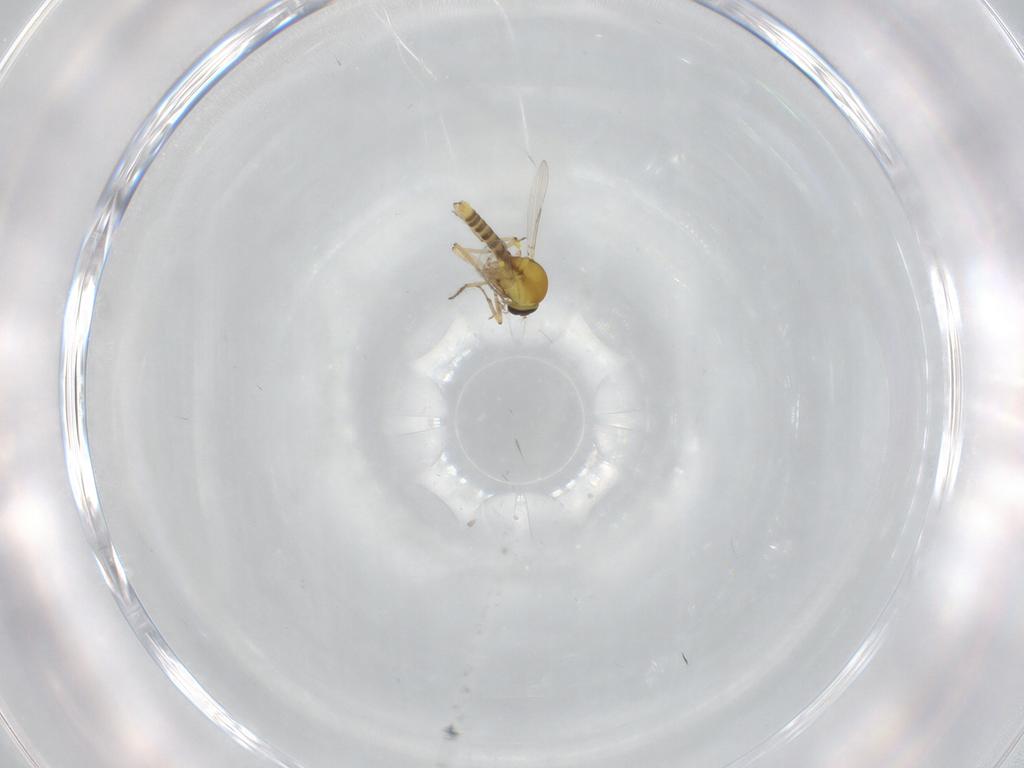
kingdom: Animalia
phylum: Arthropoda
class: Insecta
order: Diptera
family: Ceratopogonidae
